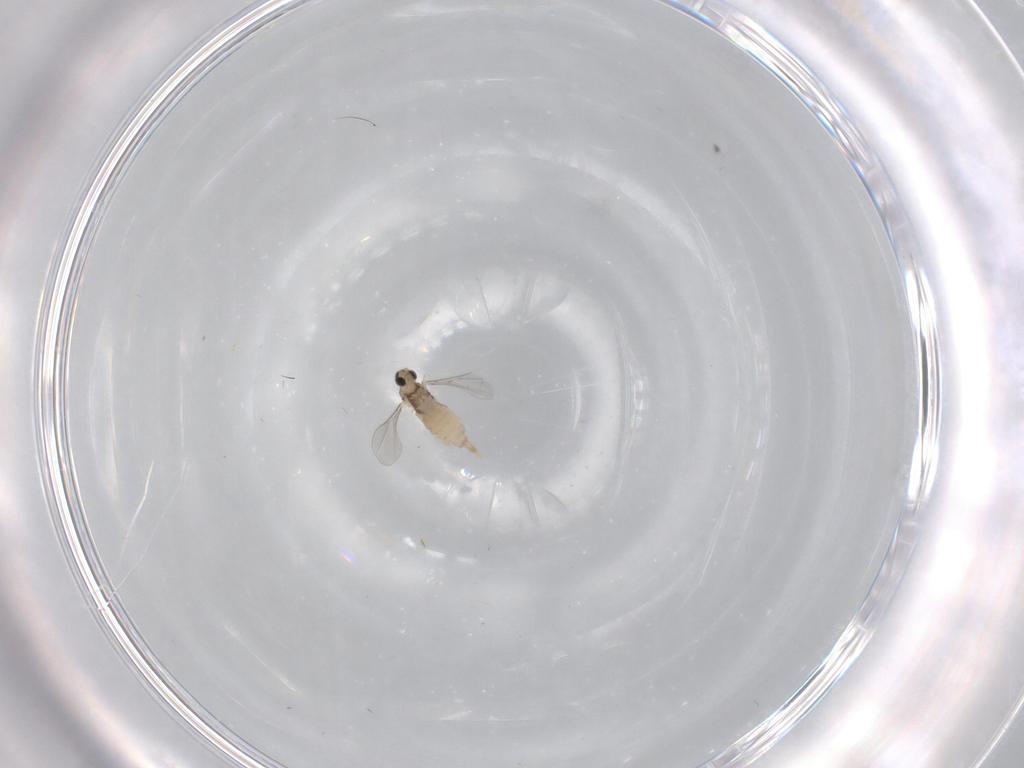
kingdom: Animalia
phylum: Arthropoda
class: Insecta
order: Diptera
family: Cecidomyiidae
